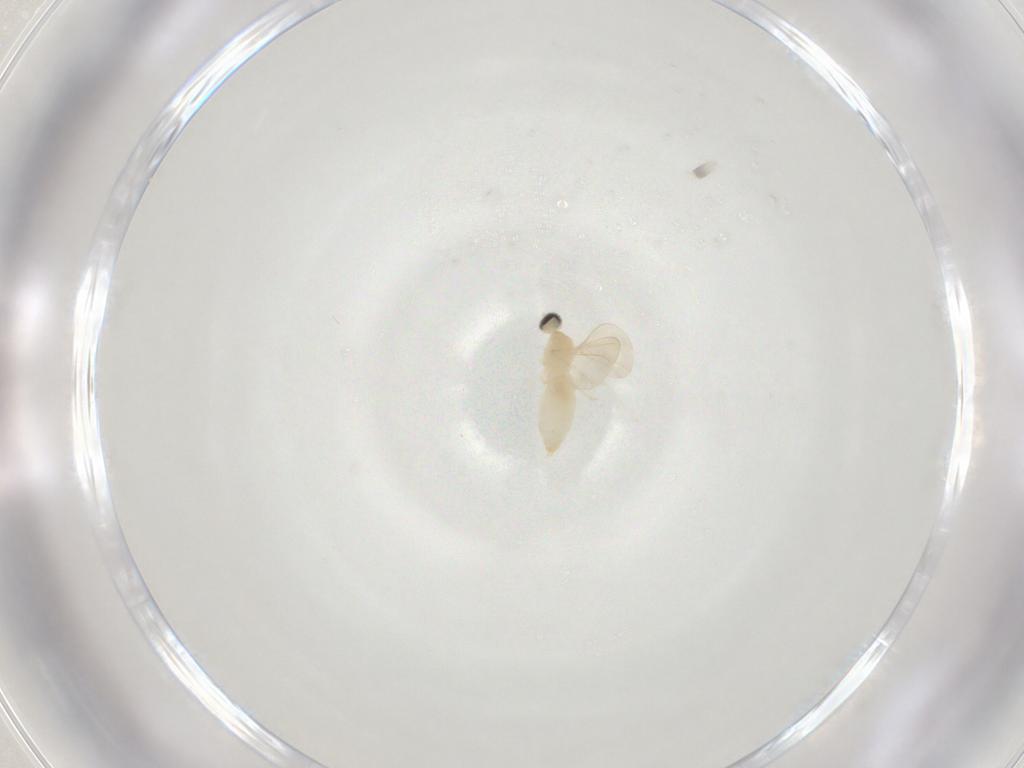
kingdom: Animalia
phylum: Arthropoda
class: Insecta
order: Diptera
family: Cecidomyiidae
